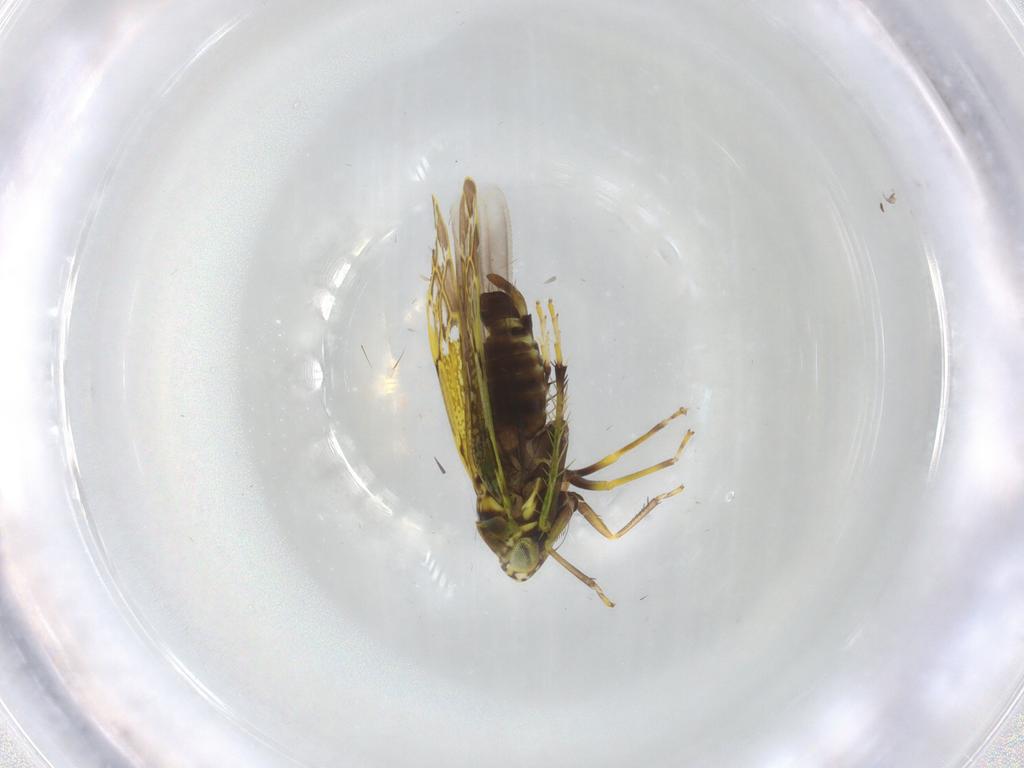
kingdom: Animalia
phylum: Arthropoda
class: Insecta
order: Hemiptera
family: Cicadellidae
